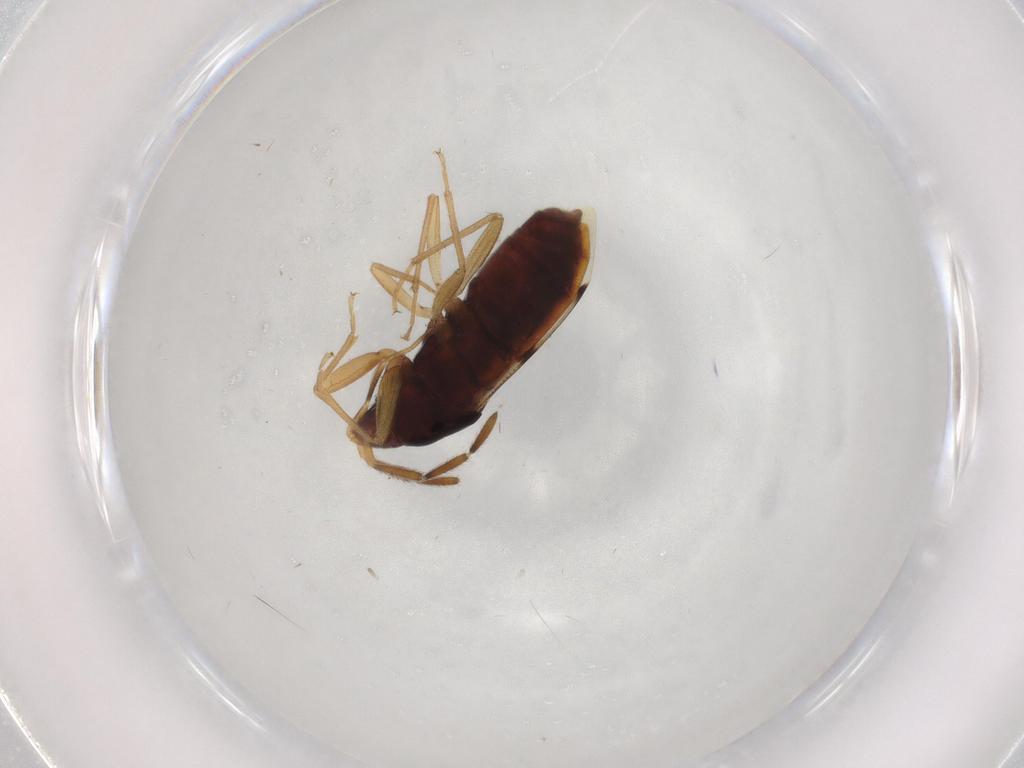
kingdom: Animalia
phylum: Arthropoda
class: Insecta
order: Hemiptera
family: Rhyparochromidae
